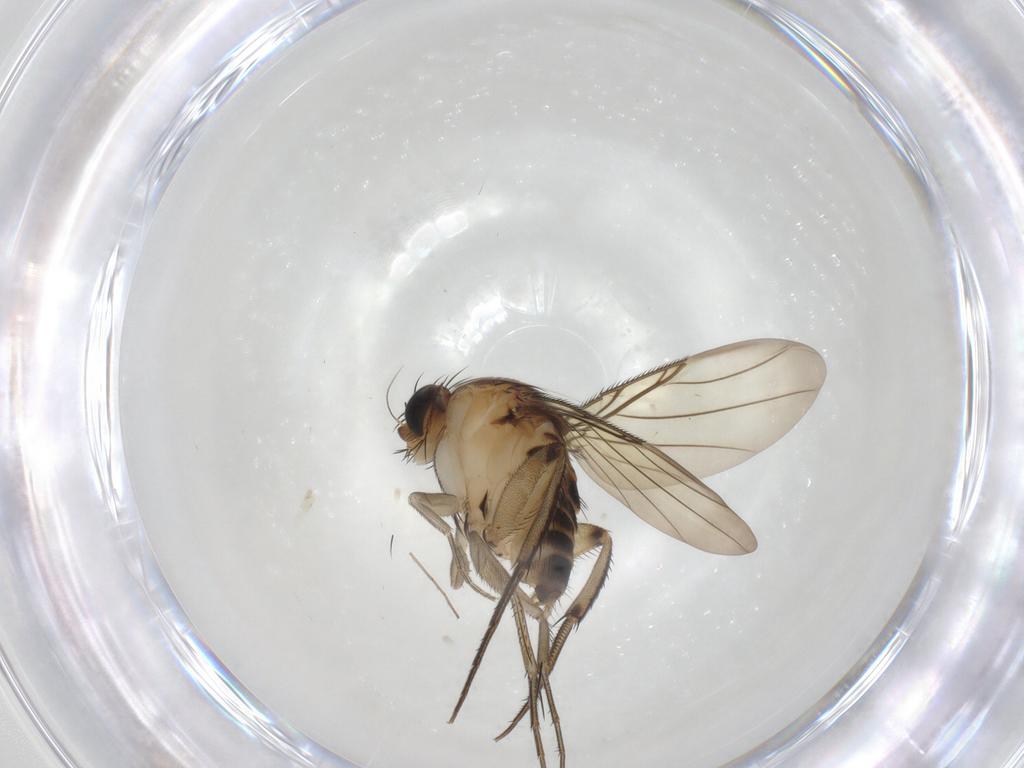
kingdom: Animalia
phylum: Arthropoda
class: Insecta
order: Diptera
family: Phoridae
